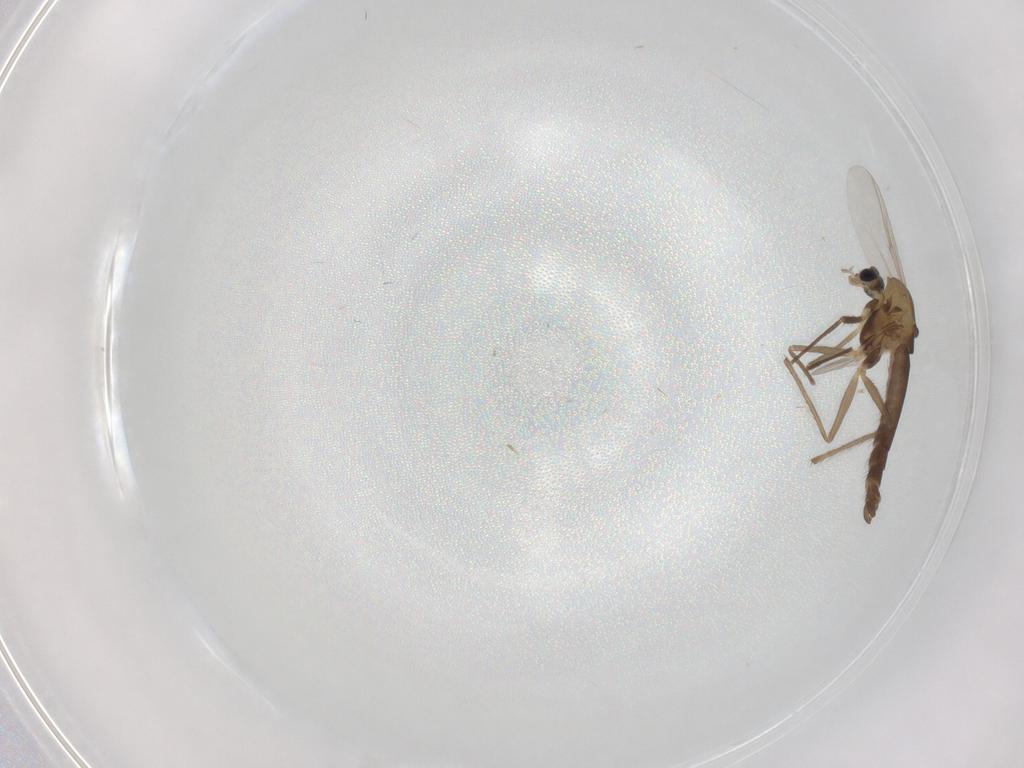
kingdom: Animalia
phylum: Arthropoda
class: Insecta
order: Diptera
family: Chironomidae
